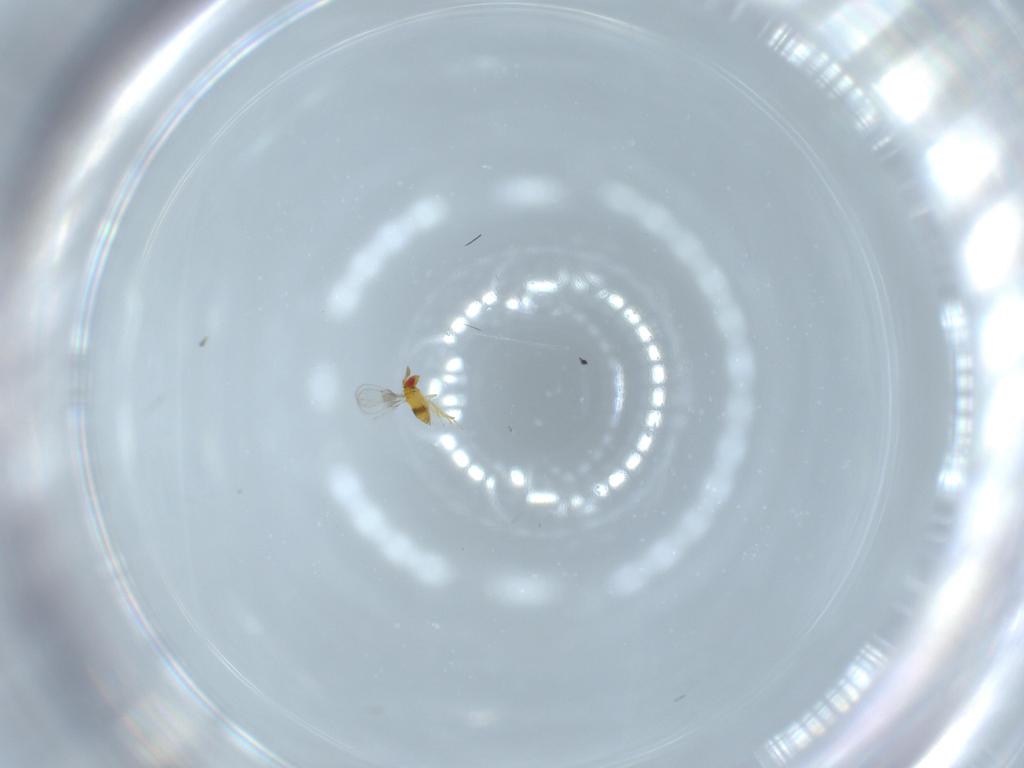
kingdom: Animalia
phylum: Arthropoda
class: Insecta
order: Hymenoptera
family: Trichogrammatidae
